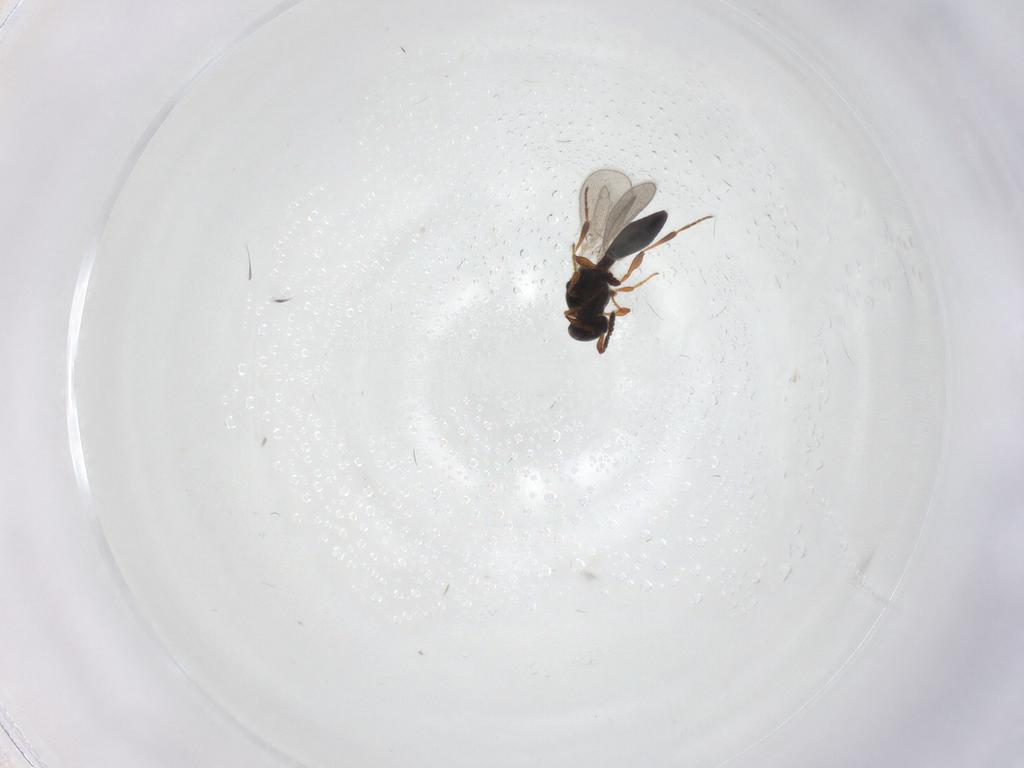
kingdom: Animalia
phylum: Arthropoda
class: Insecta
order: Hymenoptera
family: Platygastridae
